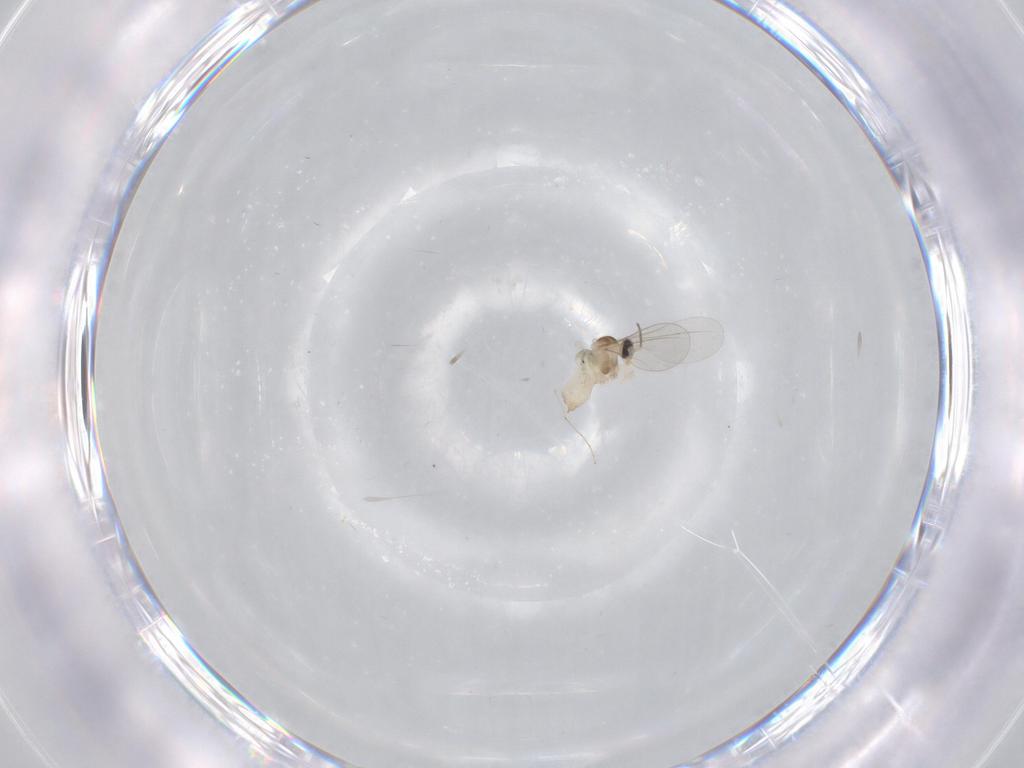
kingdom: Animalia
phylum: Arthropoda
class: Insecta
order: Diptera
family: Cecidomyiidae
